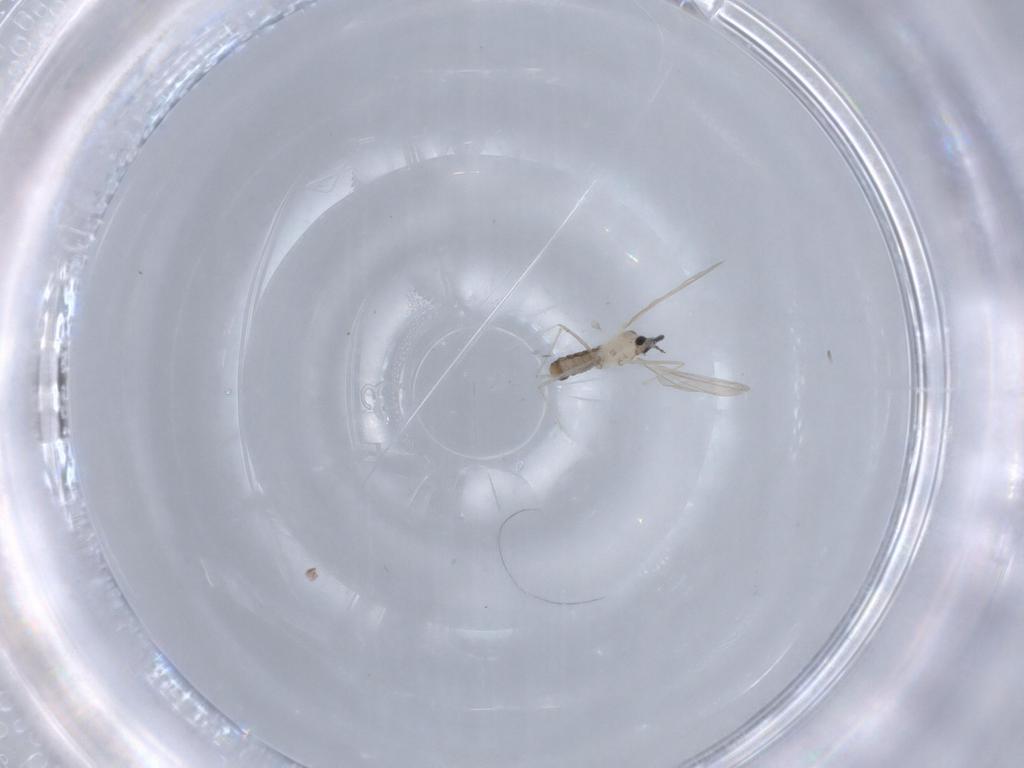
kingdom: Animalia
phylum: Arthropoda
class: Insecta
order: Diptera
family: Cecidomyiidae
